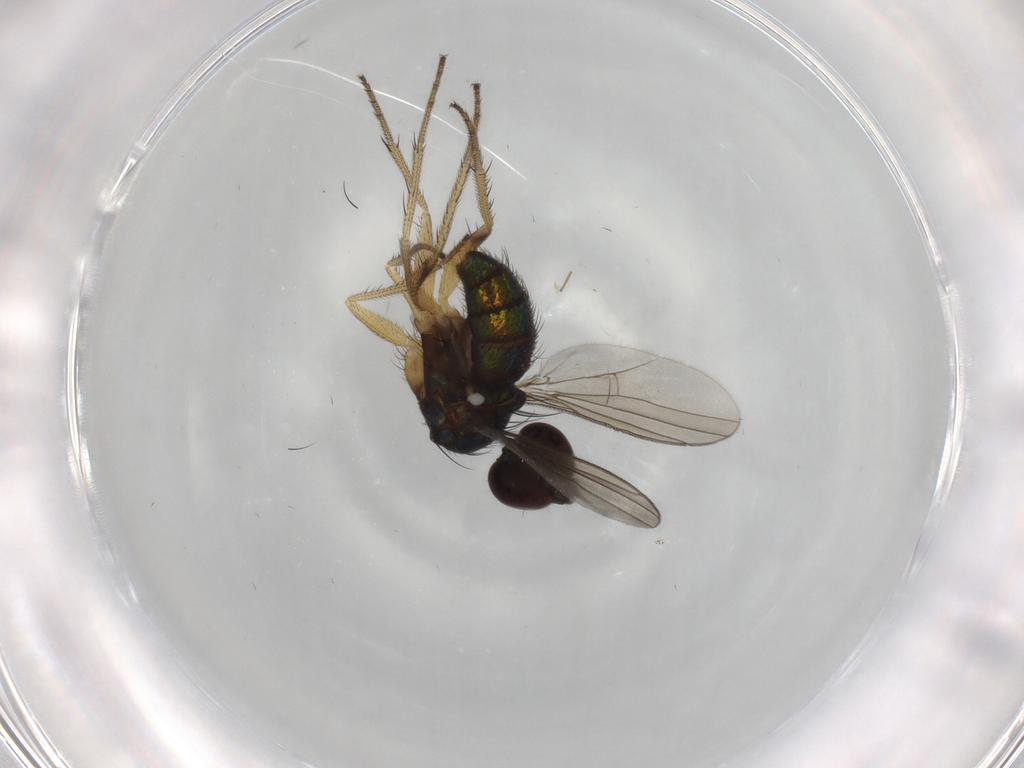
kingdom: Animalia
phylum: Arthropoda
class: Insecta
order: Diptera
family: Dolichopodidae
